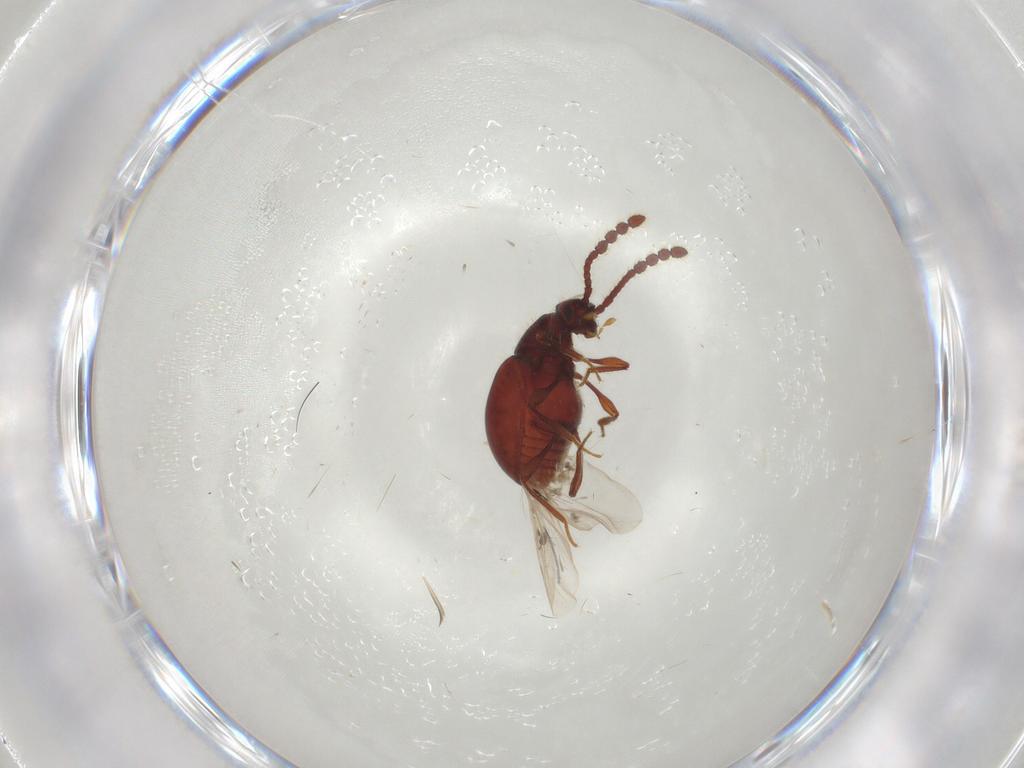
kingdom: Animalia
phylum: Arthropoda
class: Insecta
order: Coleoptera
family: Staphylinidae
